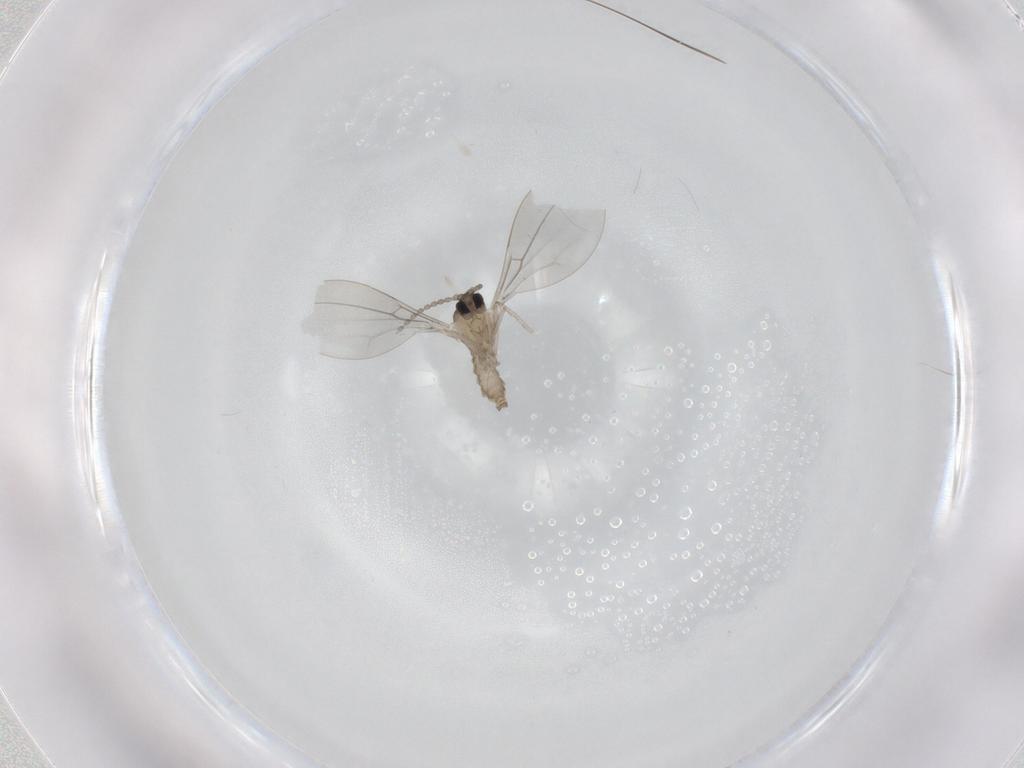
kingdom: Animalia
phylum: Arthropoda
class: Insecta
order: Diptera
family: Cecidomyiidae
